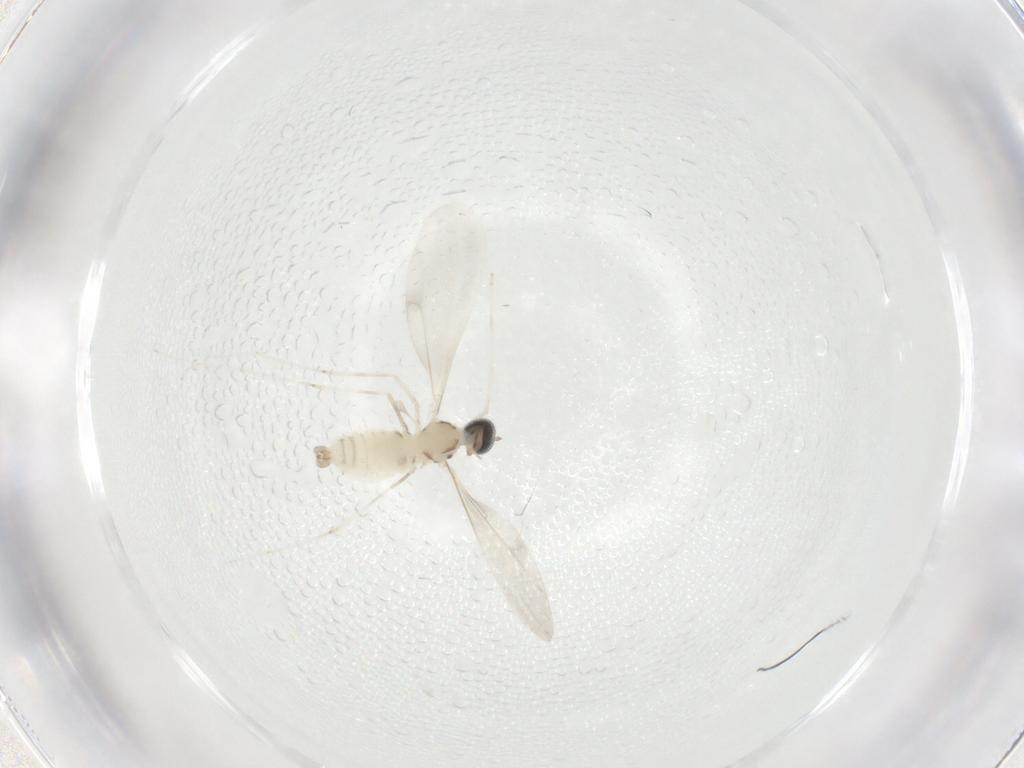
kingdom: Animalia
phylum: Arthropoda
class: Insecta
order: Diptera
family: Cecidomyiidae
